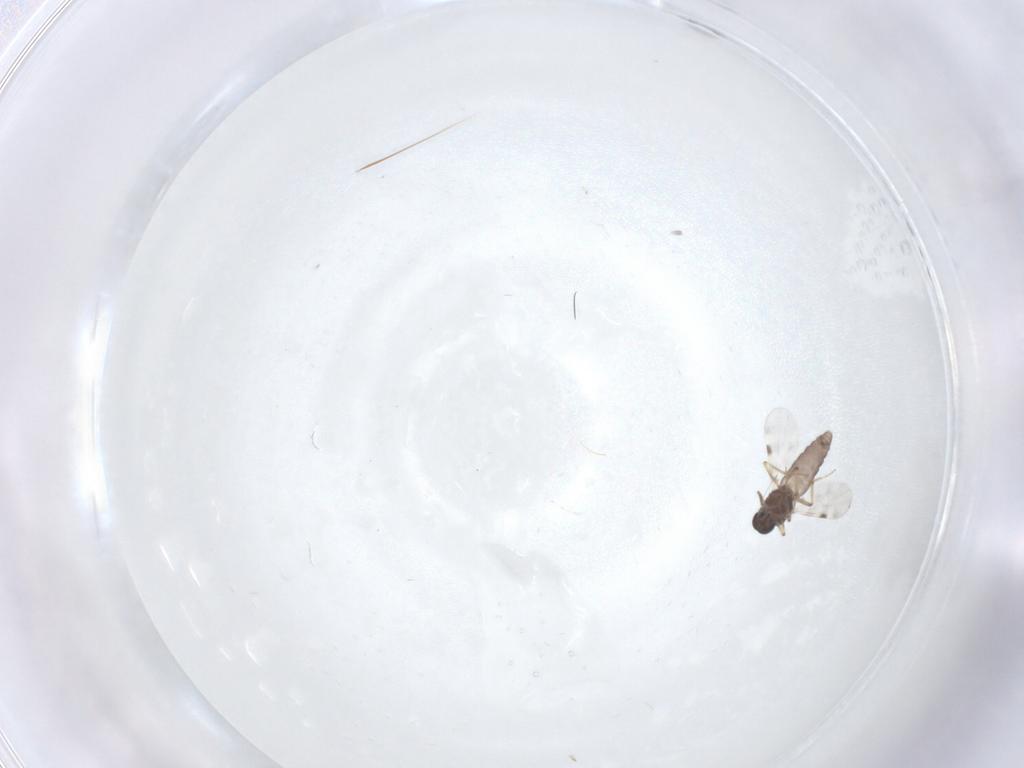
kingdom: Animalia
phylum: Arthropoda
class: Insecta
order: Diptera
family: Phoridae
